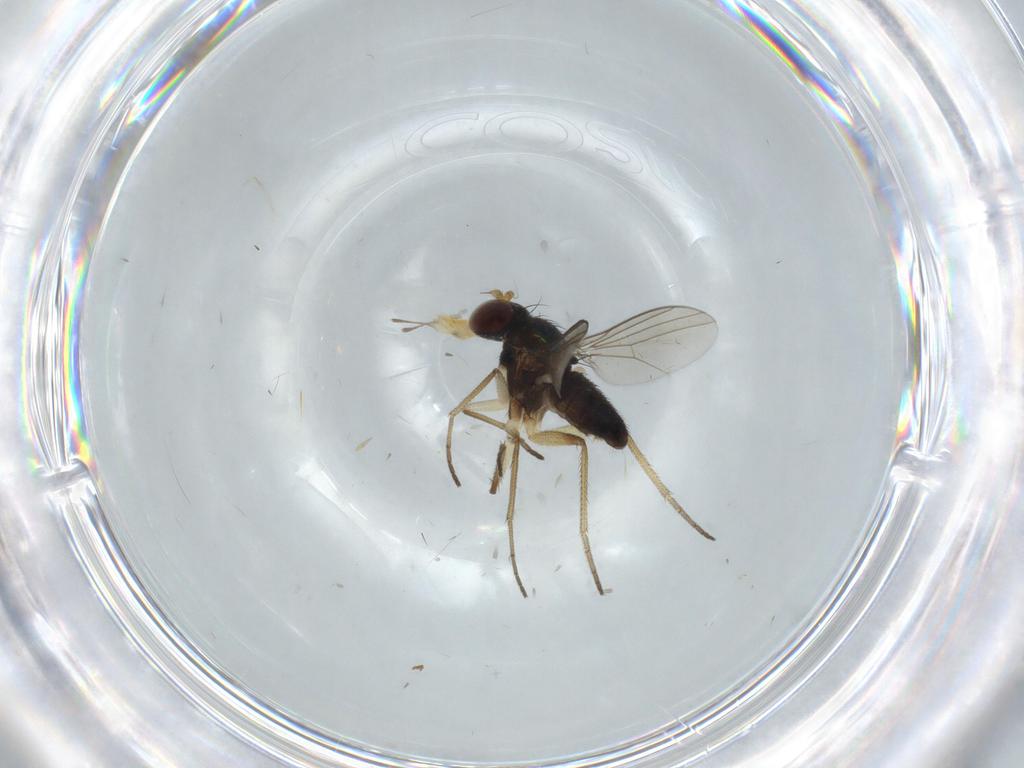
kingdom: Animalia
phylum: Arthropoda
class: Insecta
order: Diptera
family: Dolichopodidae
